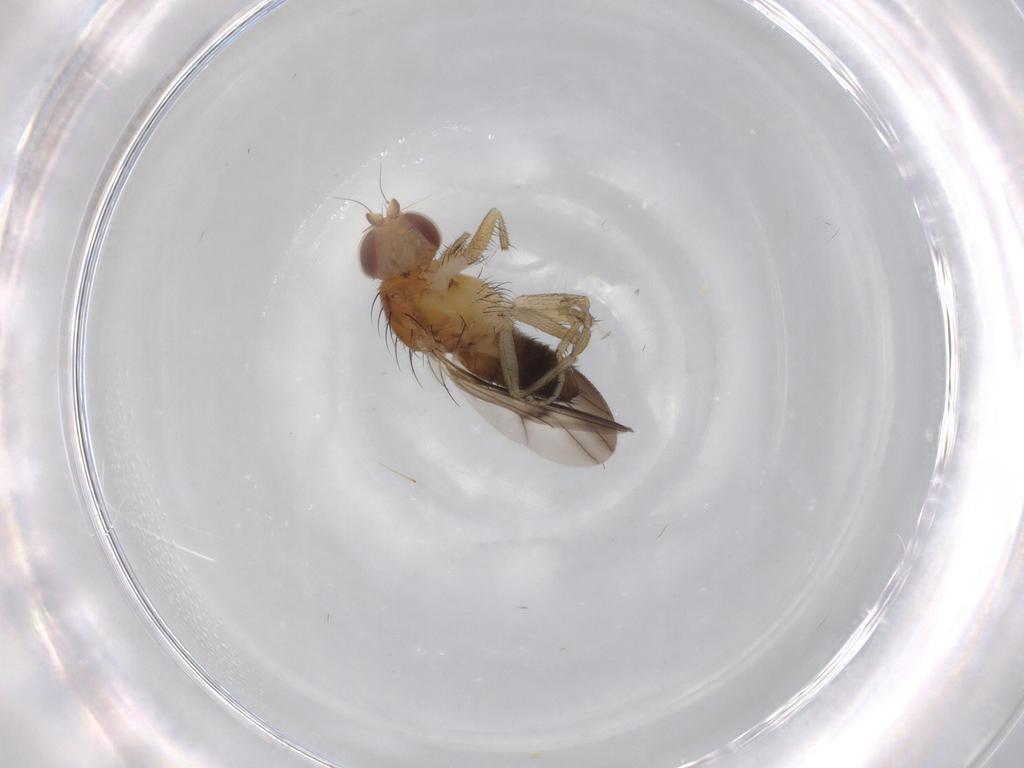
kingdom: Animalia
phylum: Arthropoda
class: Insecta
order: Diptera
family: Heleomyzidae
